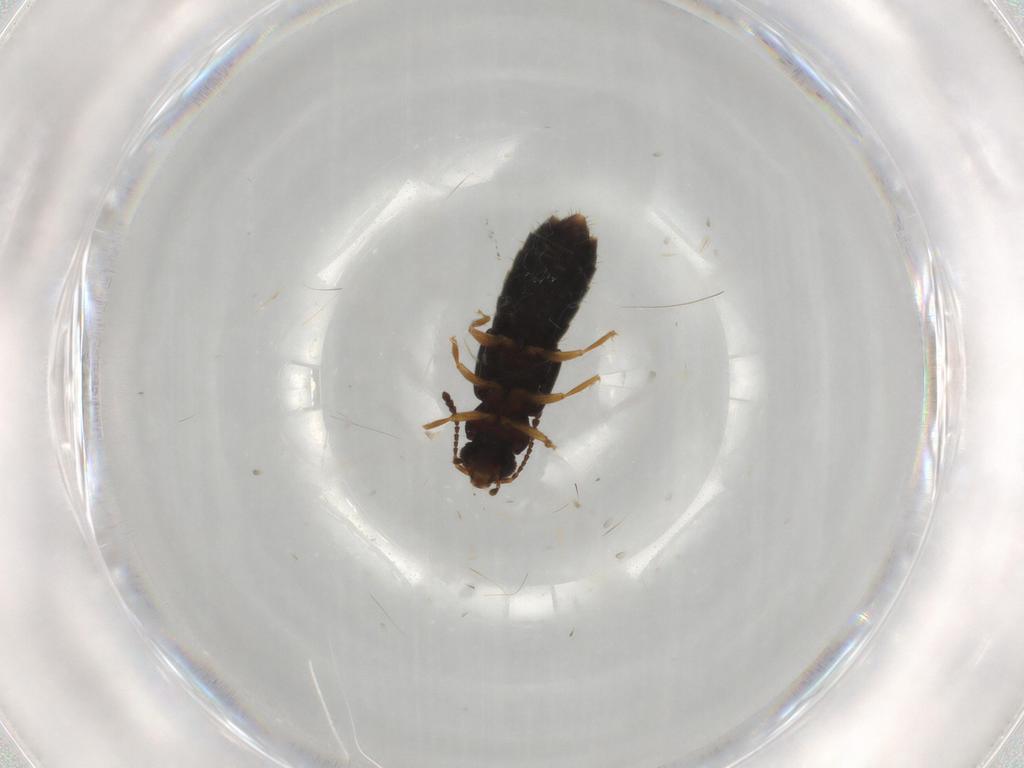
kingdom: Animalia
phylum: Arthropoda
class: Insecta
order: Coleoptera
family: Staphylinidae
